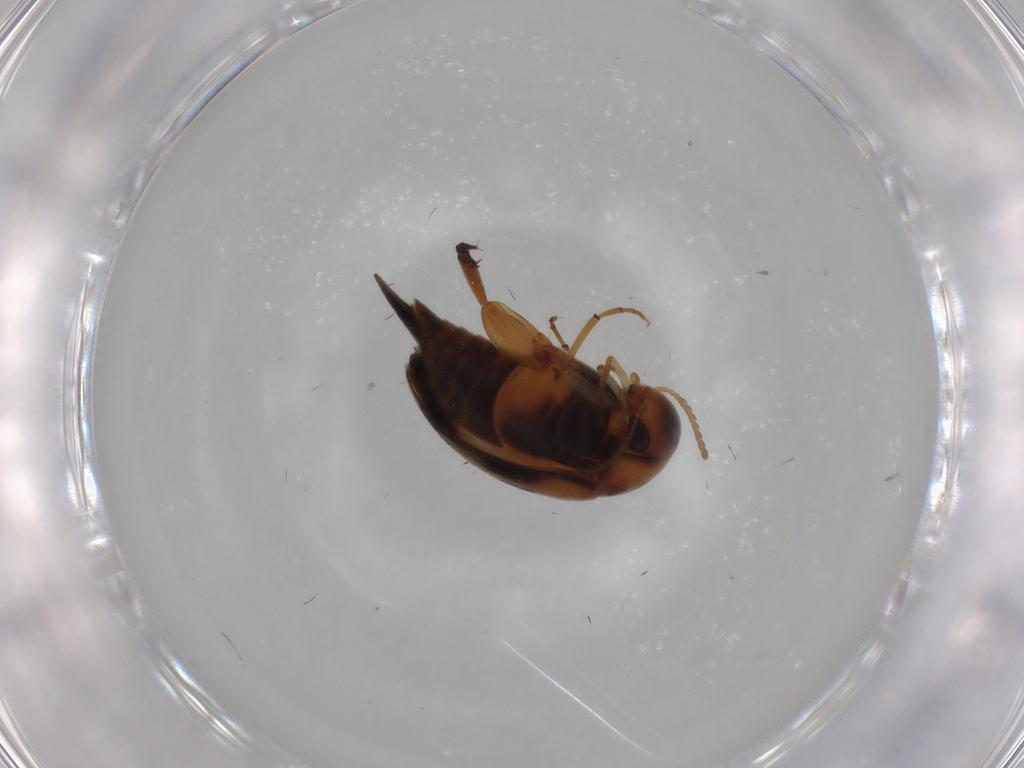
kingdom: Animalia
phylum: Arthropoda
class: Insecta
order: Coleoptera
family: Mordellidae
